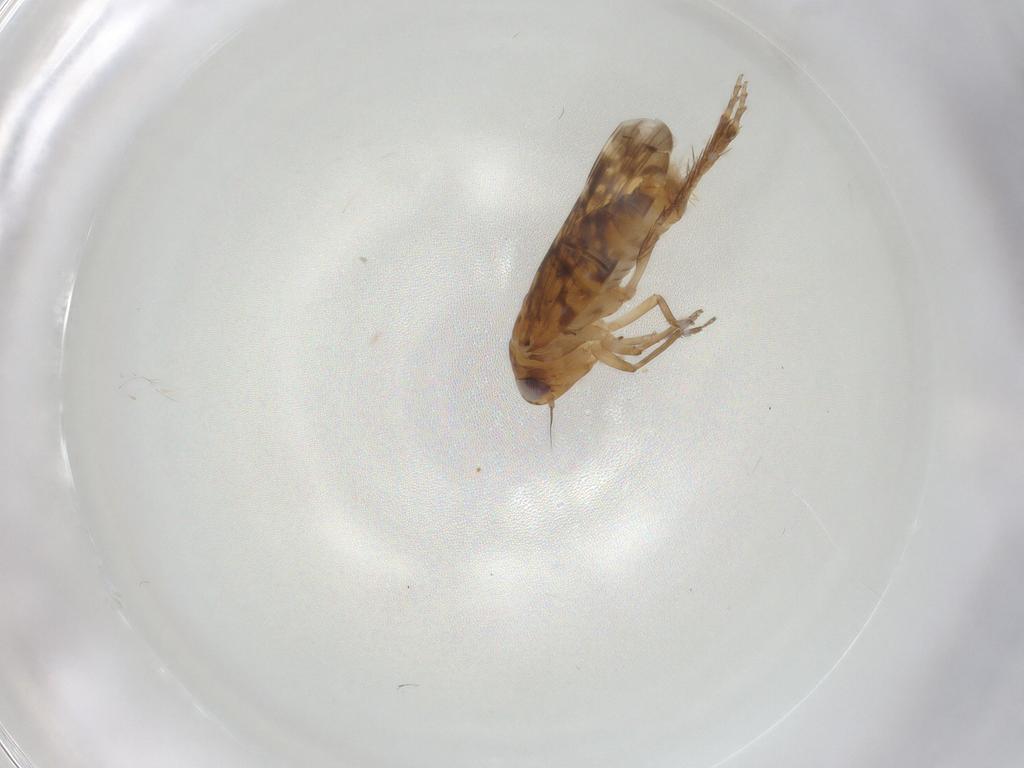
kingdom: Animalia
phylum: Arthropoda
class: Insecta
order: Hemiptera
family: Cicadellidae
